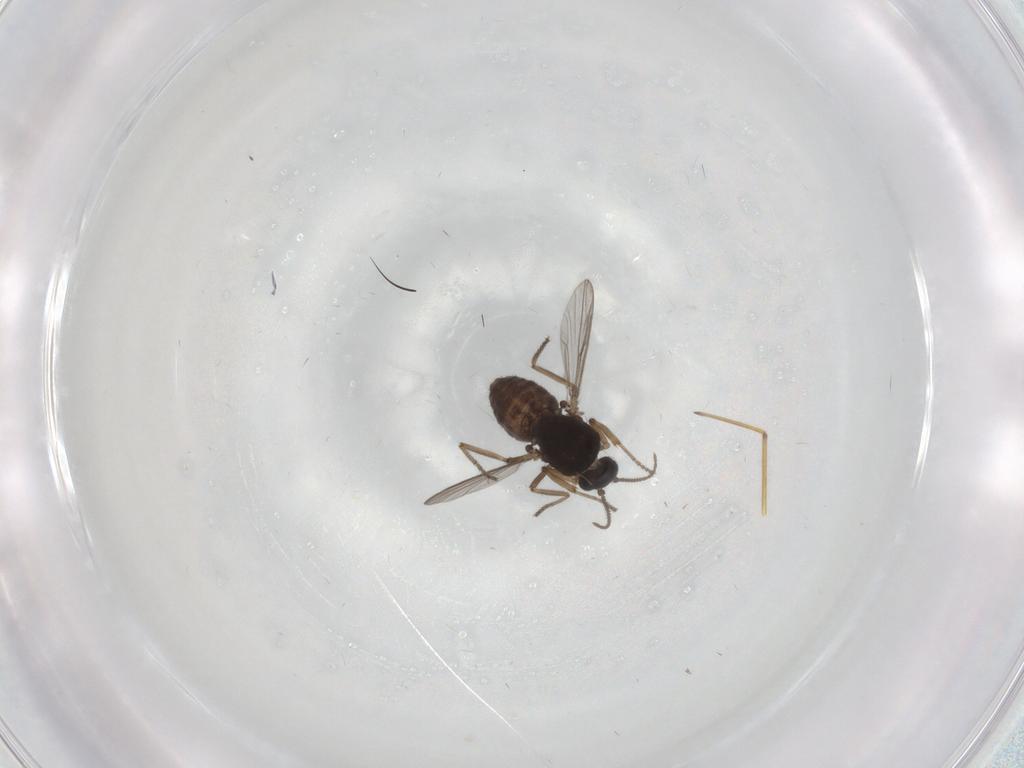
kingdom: Animalia
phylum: Arthropoda
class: Insecta
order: Diptera
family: Ceratopogonidae
